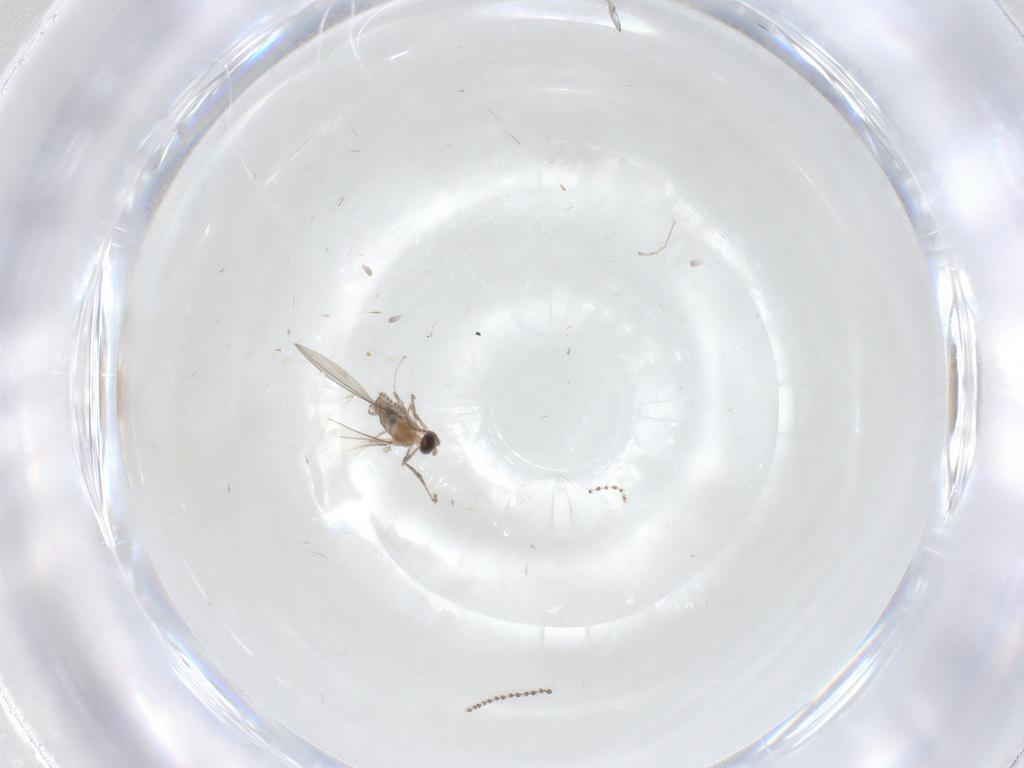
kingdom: Animalia
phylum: Arthropoda
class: Insecta
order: Diptera
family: Cecidomyiidae
